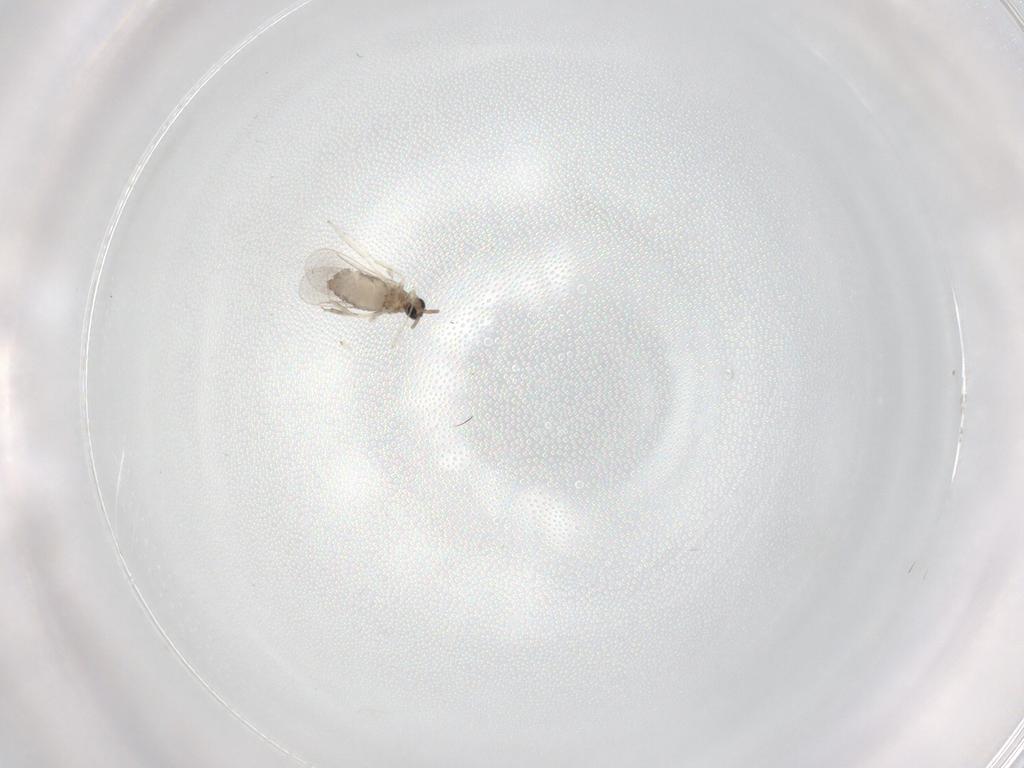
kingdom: Animalia
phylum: Arthropoda
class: Insecta
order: Diptera
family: Cecidomyiidae
